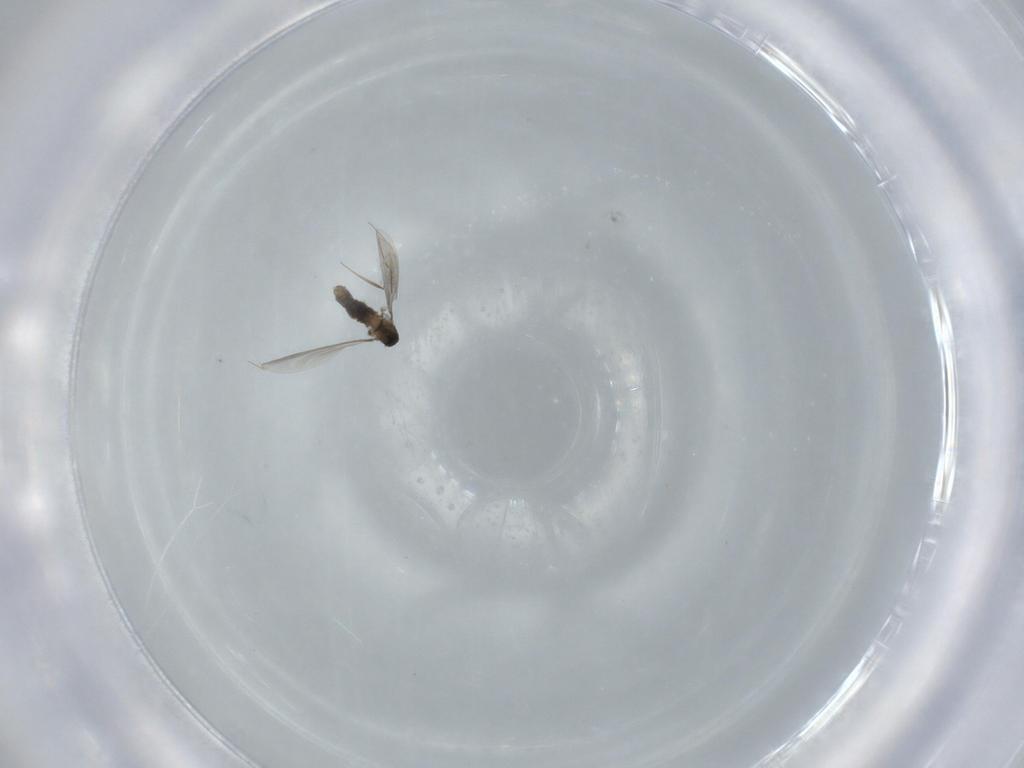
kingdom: Animalia
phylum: Arthropoda
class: Insecta
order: Diptera
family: Cecidomyiidae
